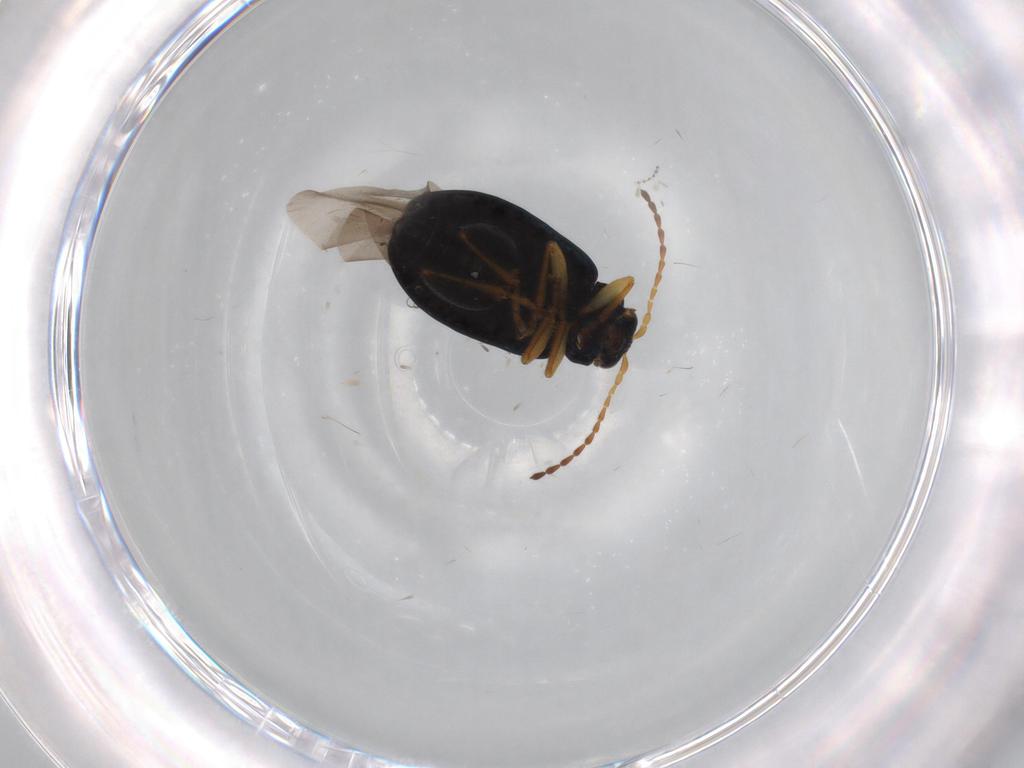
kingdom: Animalia
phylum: Arthropoda
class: Insecta
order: Coleoptera
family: Chrysomelidae
